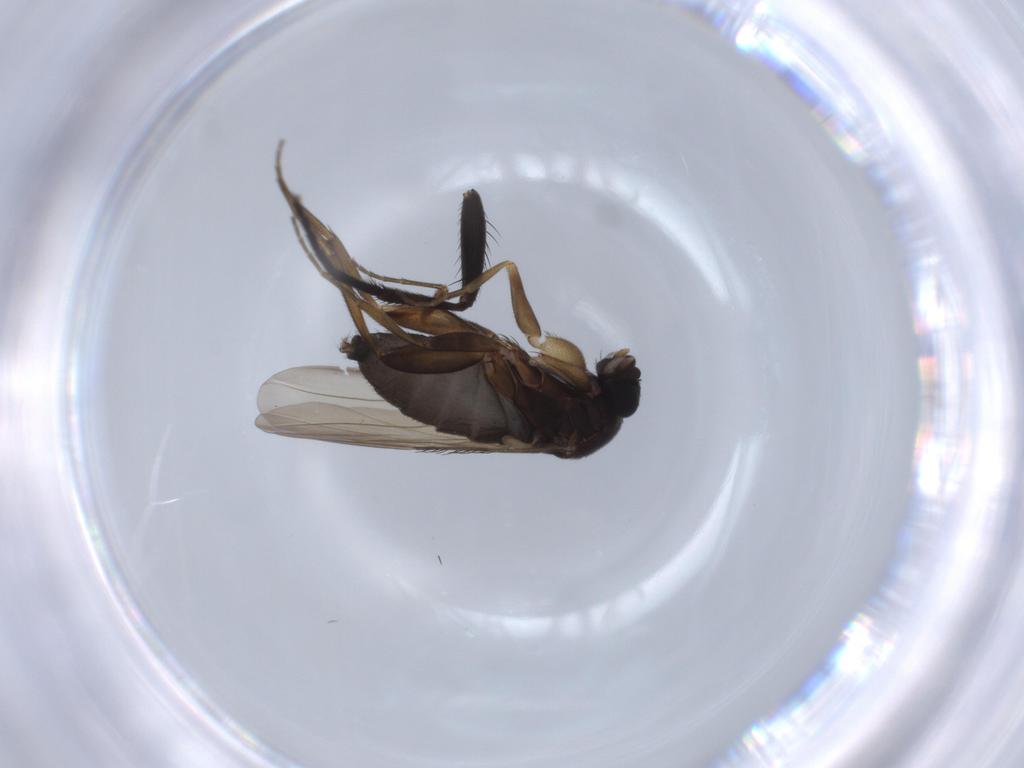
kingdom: Animalia
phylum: Arthropoda
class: Insecta
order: Diptera
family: Phoridae
